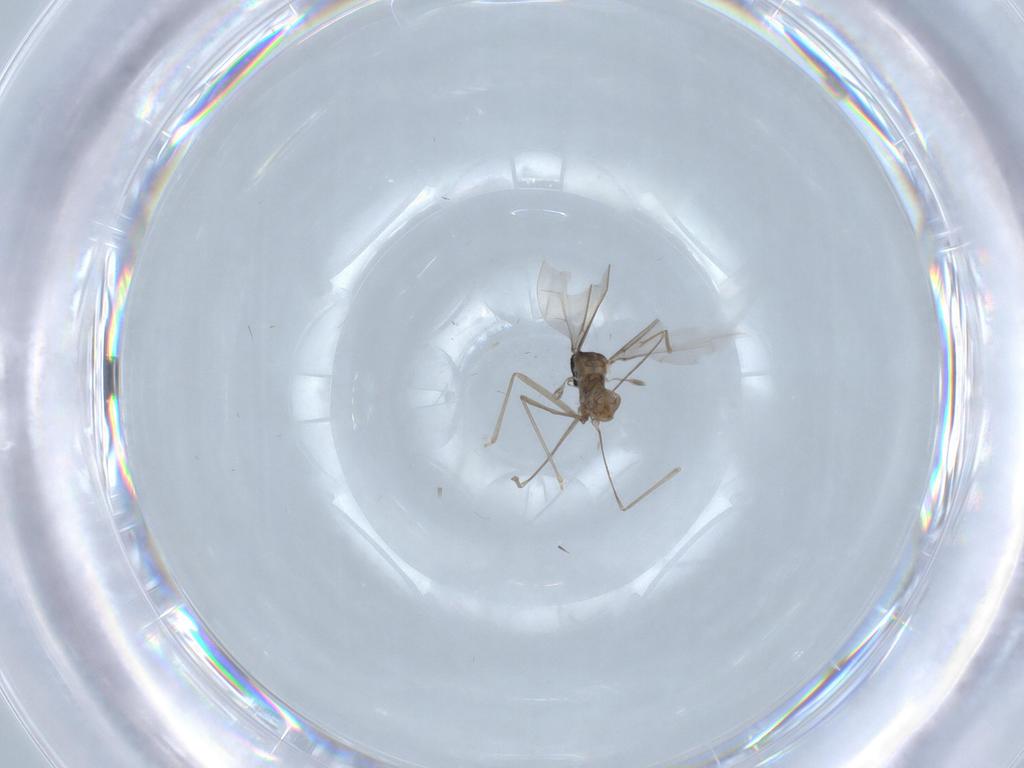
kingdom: Animalia
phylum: Arthropoda
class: Insecta
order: Diptera
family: Cecidomyiidae
